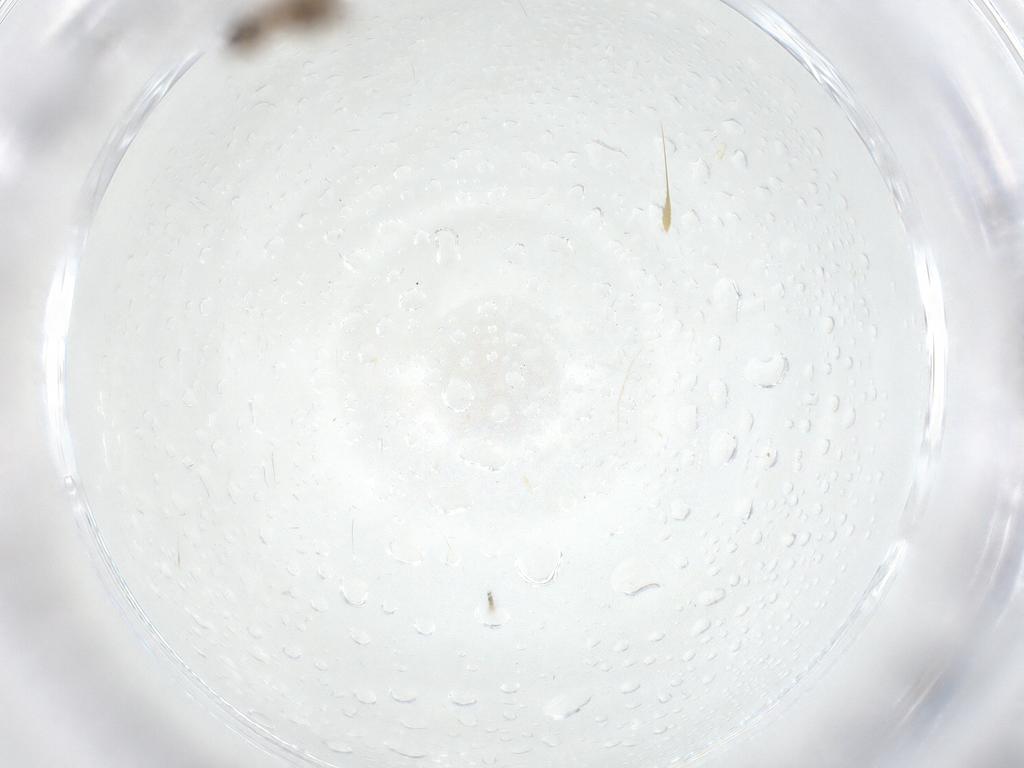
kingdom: Animalia
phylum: Arthropoda
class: Insecta
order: Diptera
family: Chironomidae
